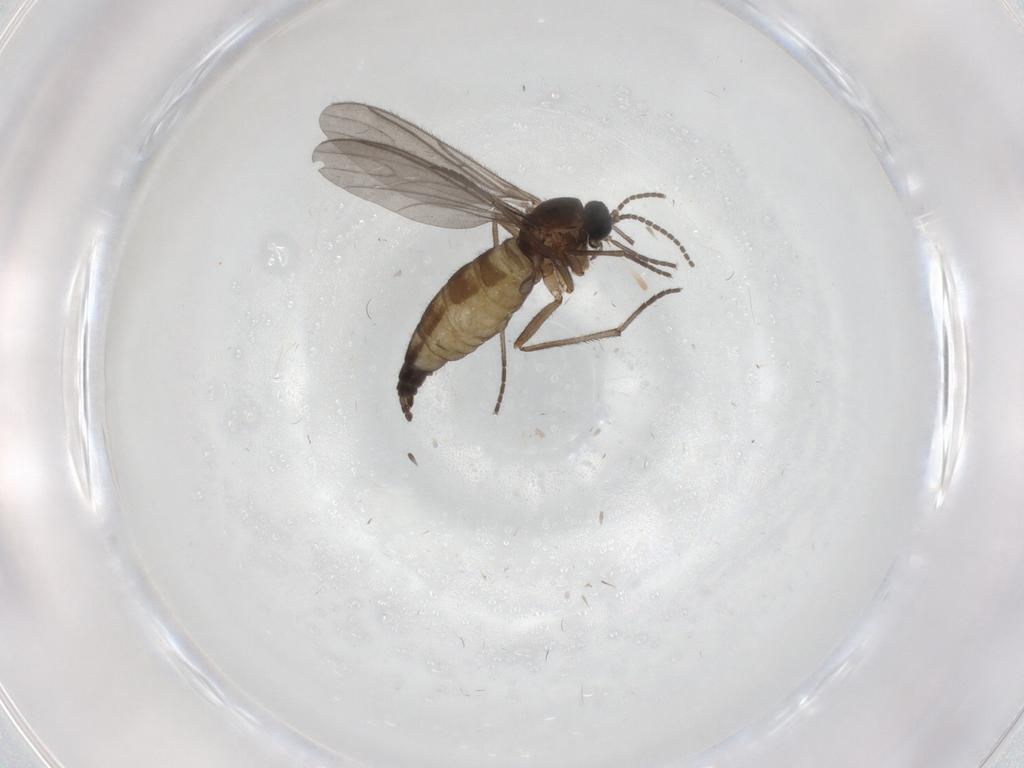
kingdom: Animalia
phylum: Arthropoda
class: Insecta
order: Diptera
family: Sciaridae
